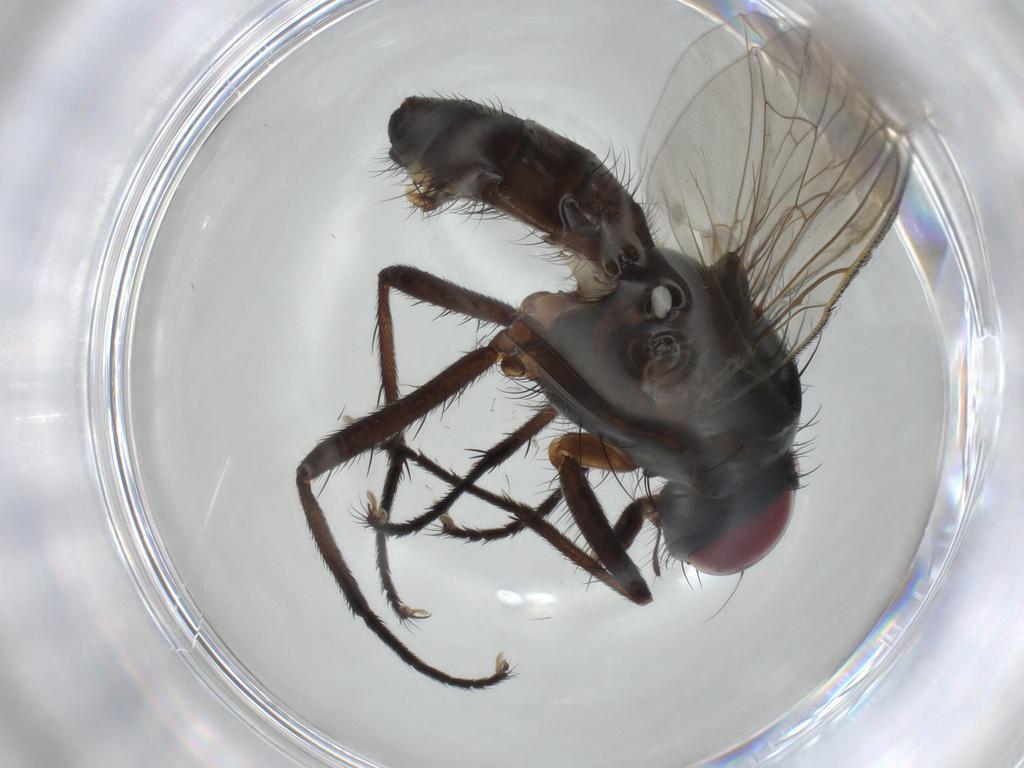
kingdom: Animalia
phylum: Arthropoda
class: Insecta
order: Diptera
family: Anthomyiidae
